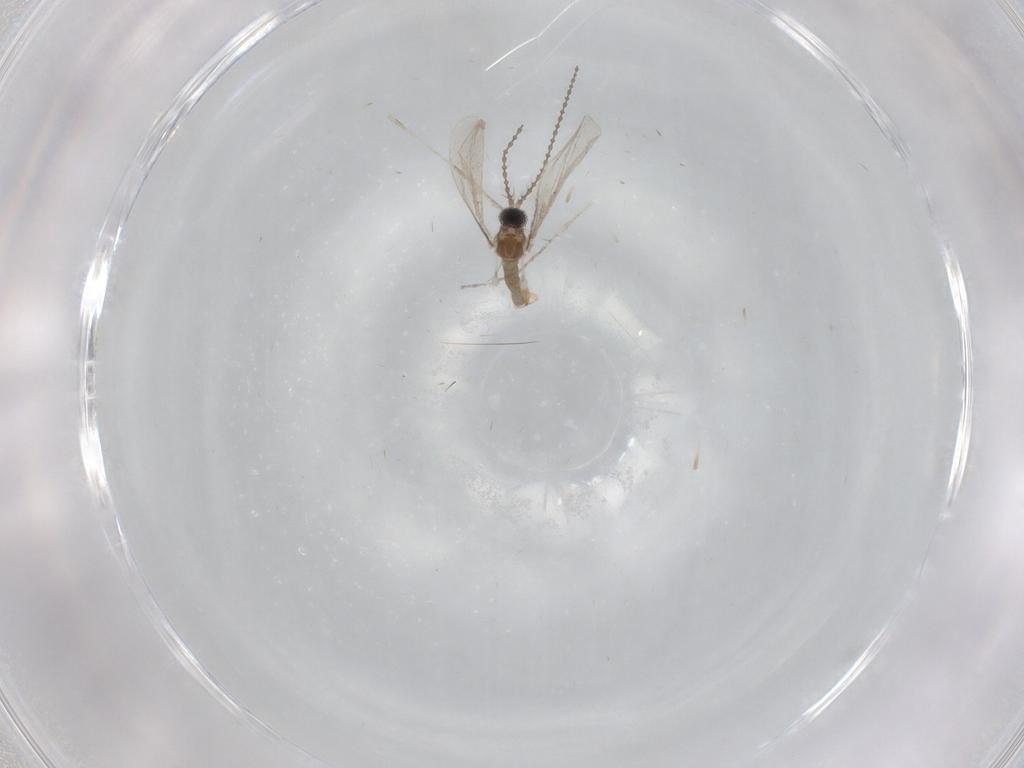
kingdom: Animalia
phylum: Arthropoda
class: Insecta
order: Diptera
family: Cecidomyiidae
